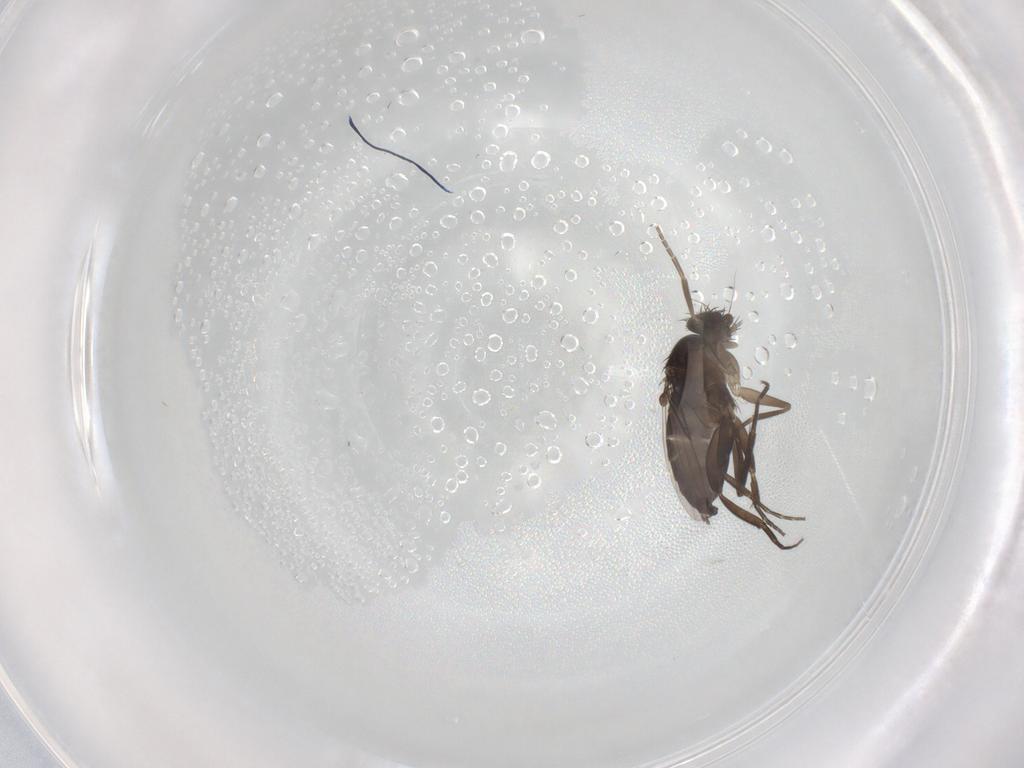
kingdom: Animalia
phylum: Arthropoda
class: Insecta
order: Diptera
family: Phoridae
